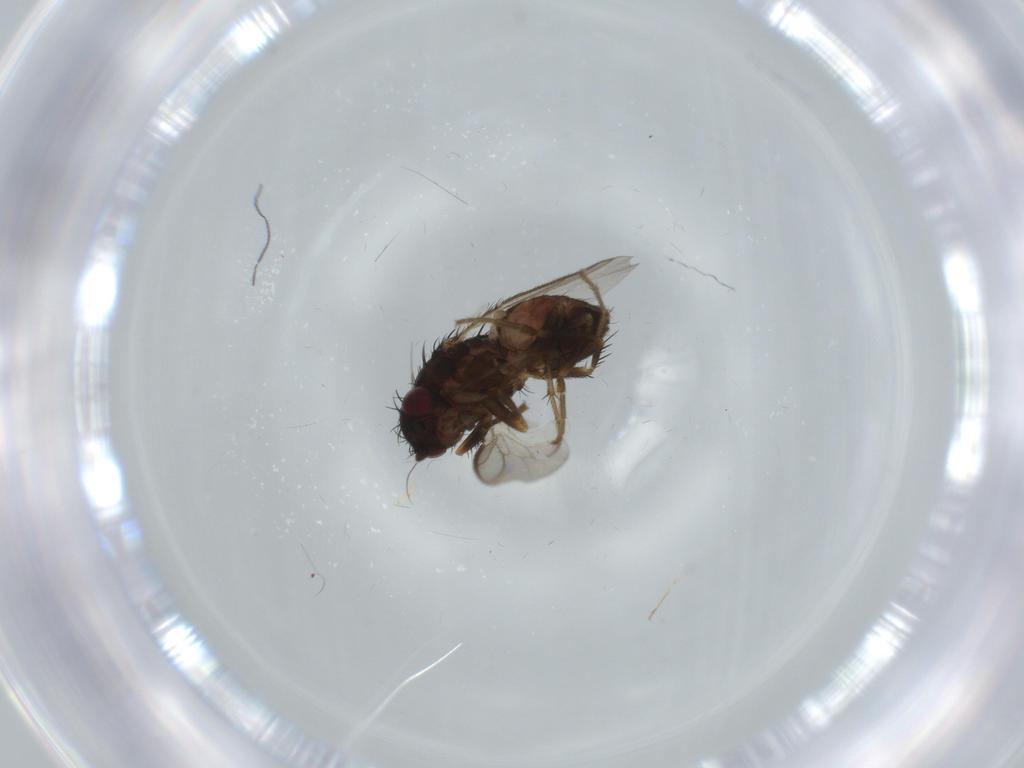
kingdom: Animalia
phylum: Arthropoda
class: Insecta
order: Diptera
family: Sphaeroceridae
